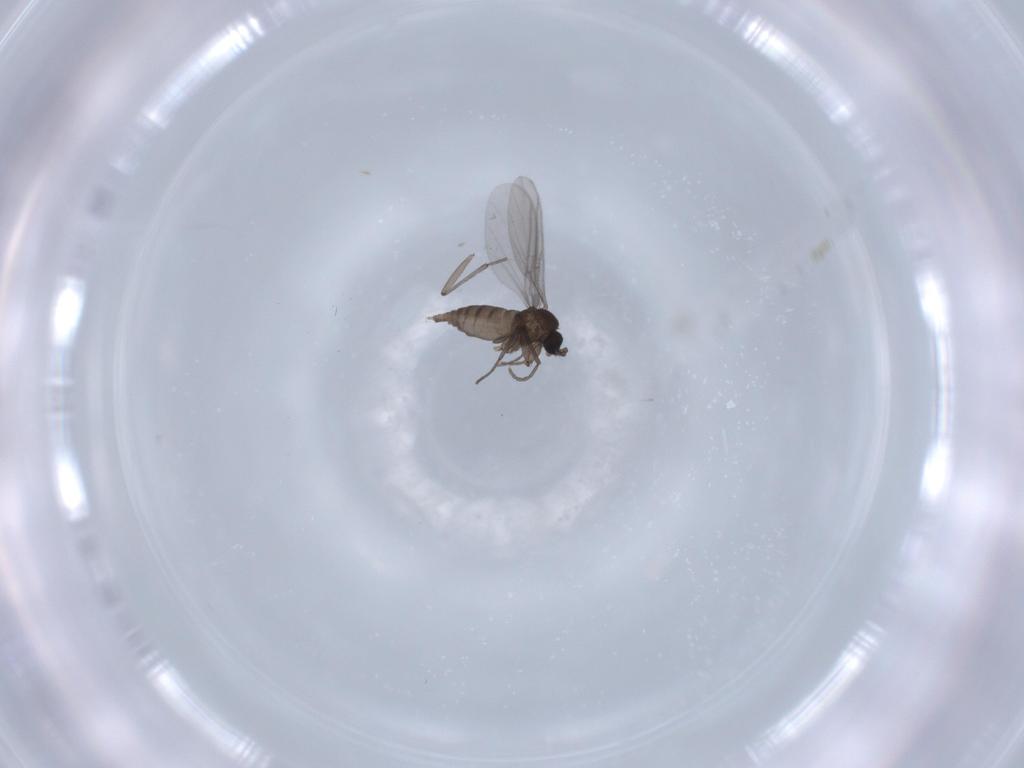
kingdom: Animalia
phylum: Arthropoda
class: Insecta
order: Diptera
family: Sciaridae
